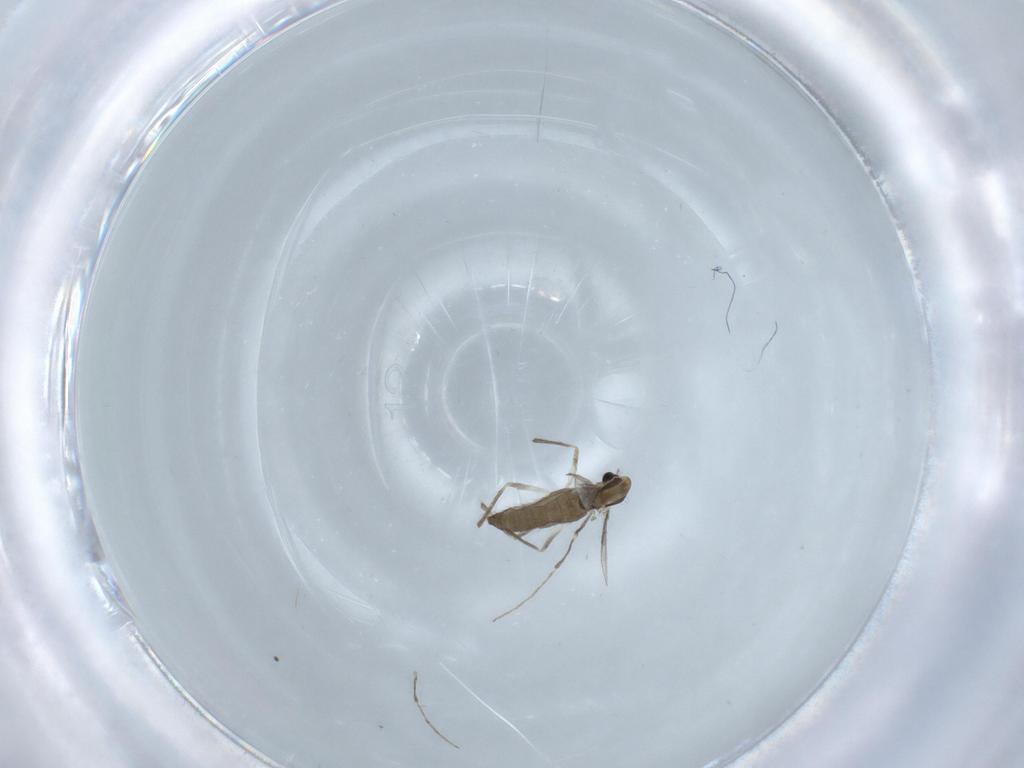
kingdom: Animalia
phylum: Arthropoda
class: Insecta
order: Diptera
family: Chironomidae
